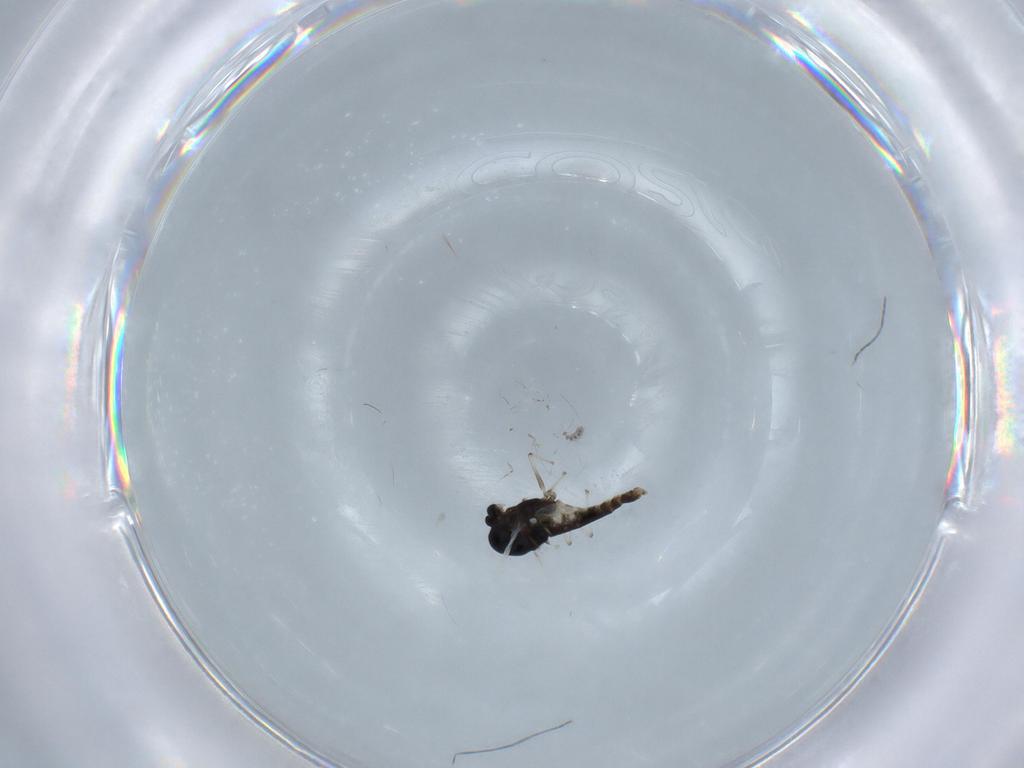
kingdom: Animalia
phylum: Arthropoda
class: Insecta
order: Diptera
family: Chironomidae
